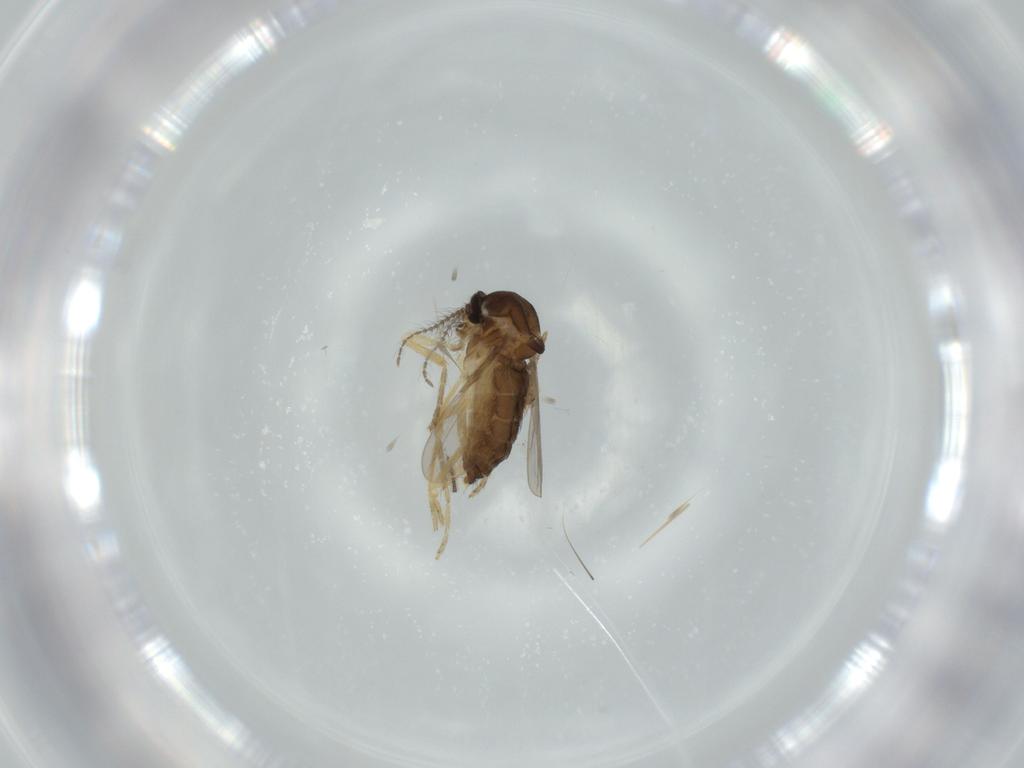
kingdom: Animalia
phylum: Arthropoda
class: Insecta
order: Diptera
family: Ceratopogonidae
